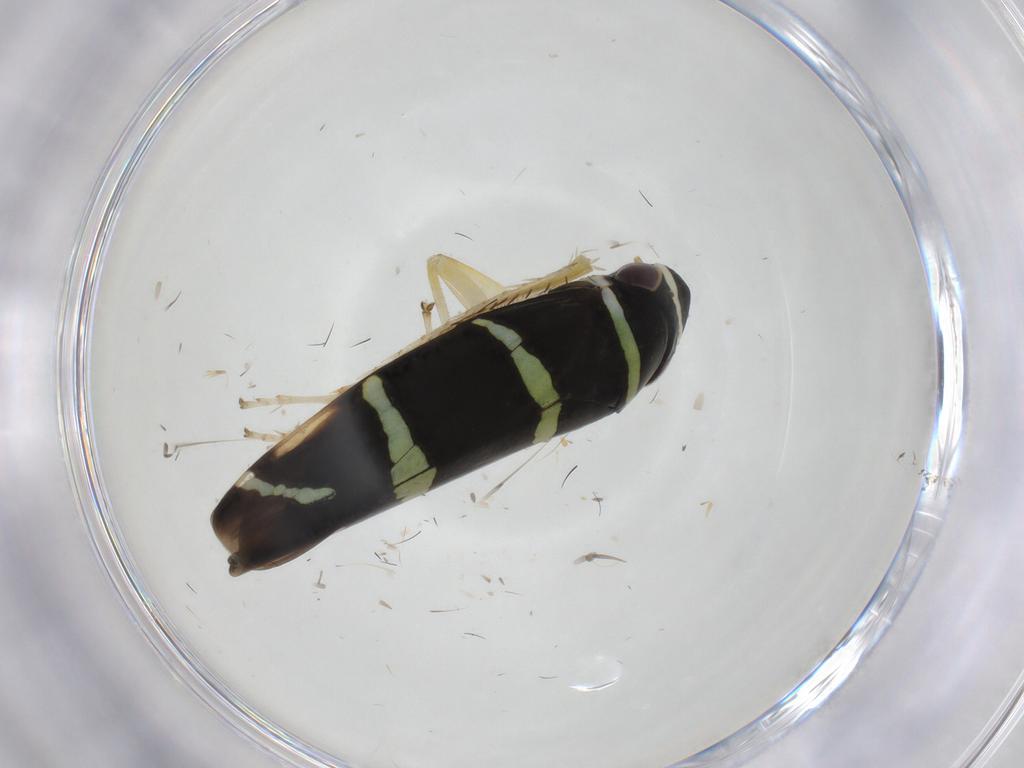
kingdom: Animalia
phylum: Arthropoda
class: Insecta
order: Hemiptera
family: Cicadellidae
